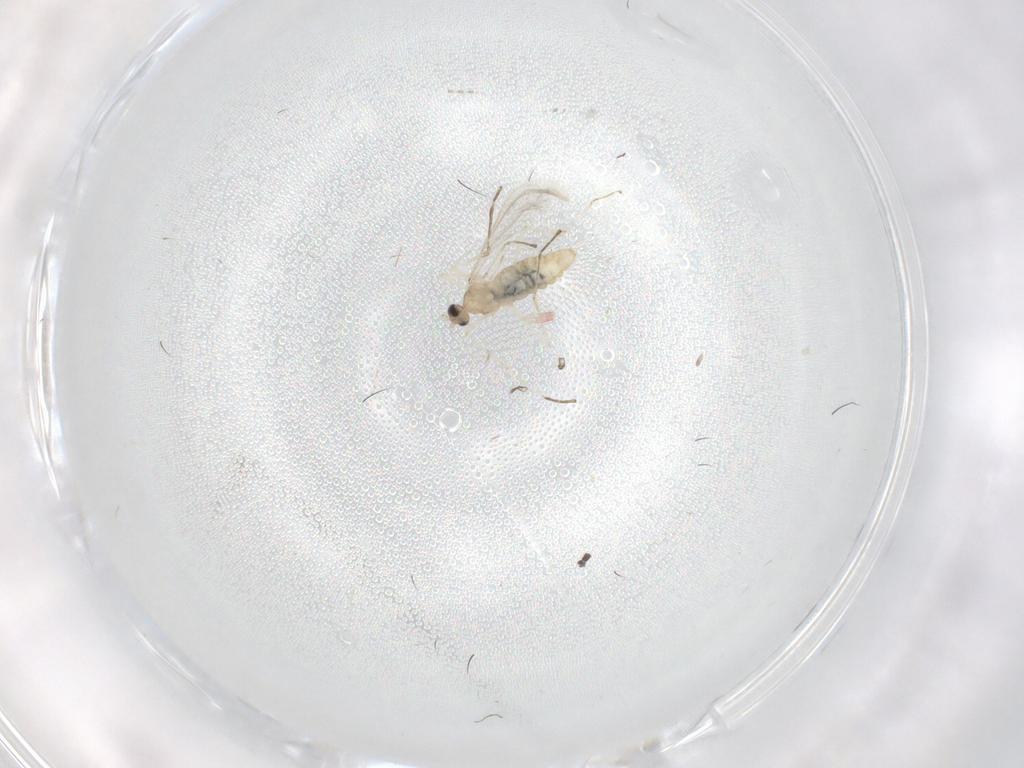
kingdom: Animalia
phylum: Arthropoda
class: Insecta
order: Diptera
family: Cecidomyiidae
